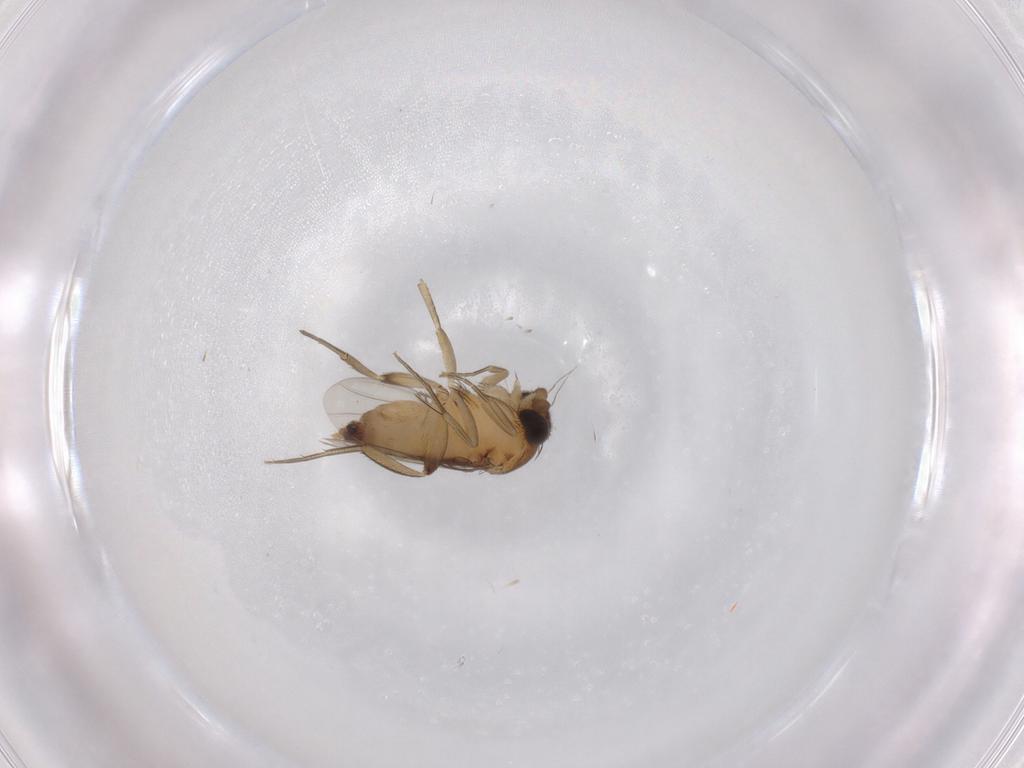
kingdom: Animalia
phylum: Arthropoda
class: Insecta
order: Diptera
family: Phoridae
